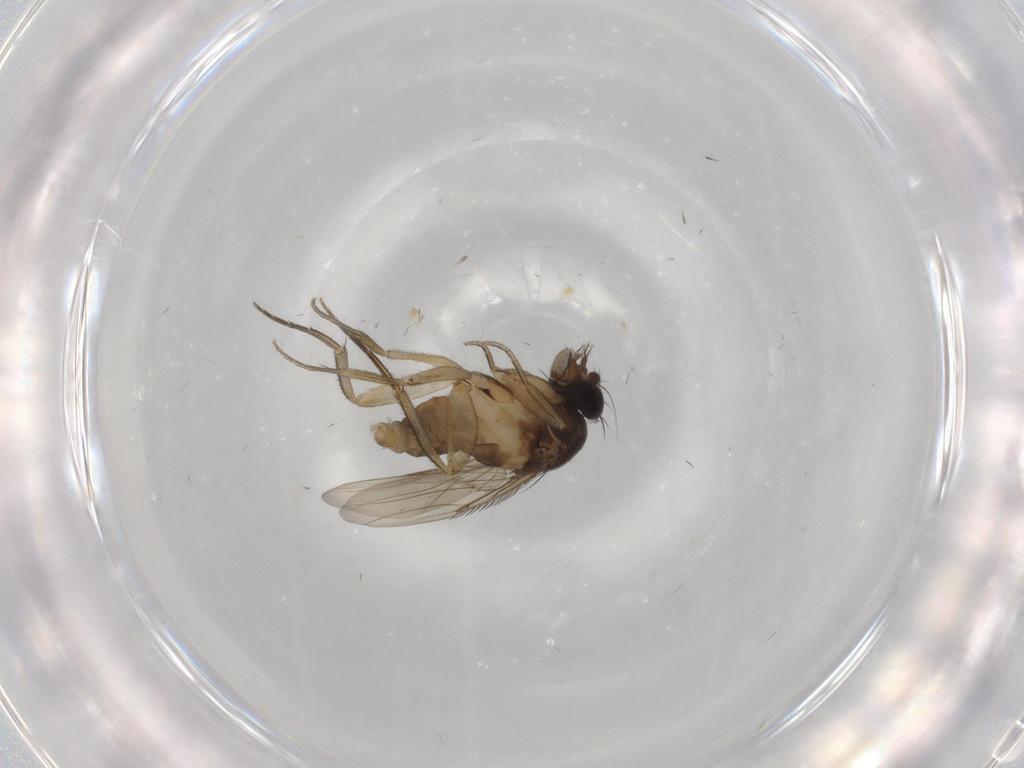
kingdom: Animalia
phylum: Arthropoda
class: Insecta
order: Diptera
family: Phoridae
